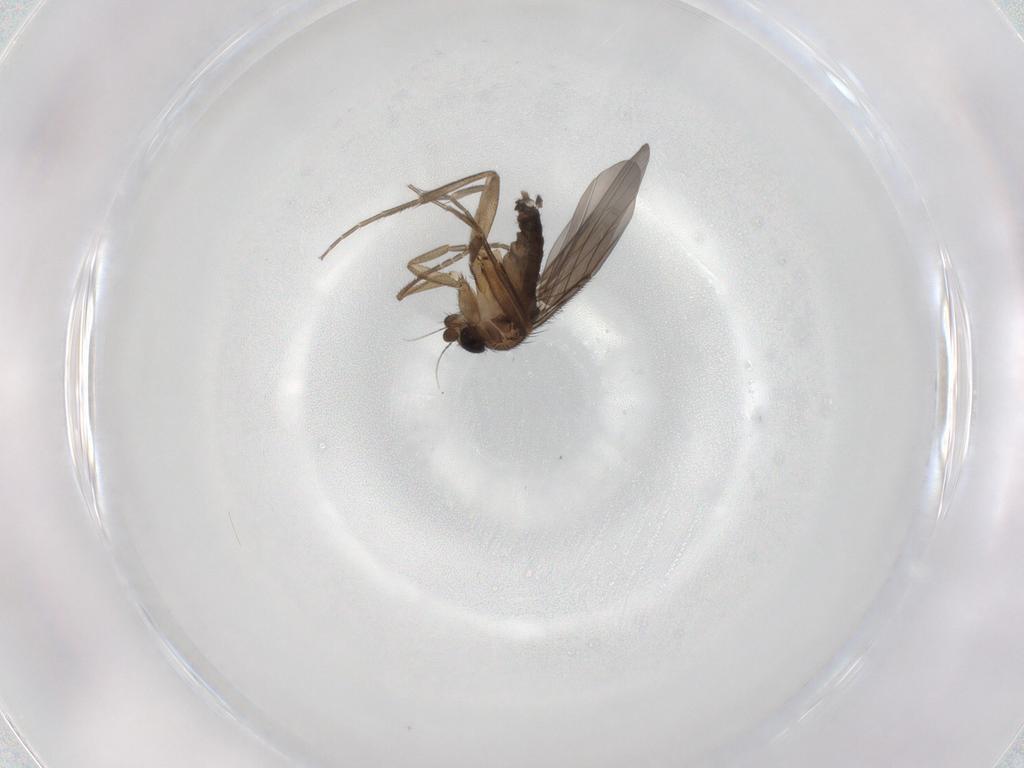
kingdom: Animalia
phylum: Arthropoda
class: Insecta
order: Diptera
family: Phoridae
